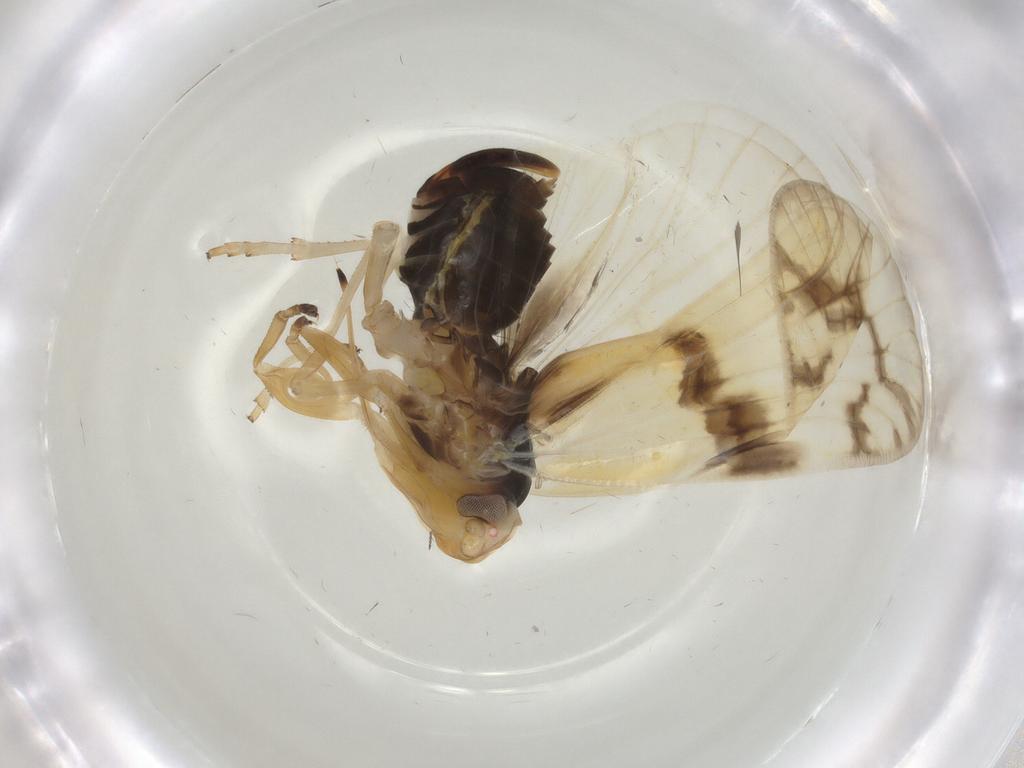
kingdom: Animalia
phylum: Arthropoda
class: Insecta
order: Hemiptera
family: Cixiidae
